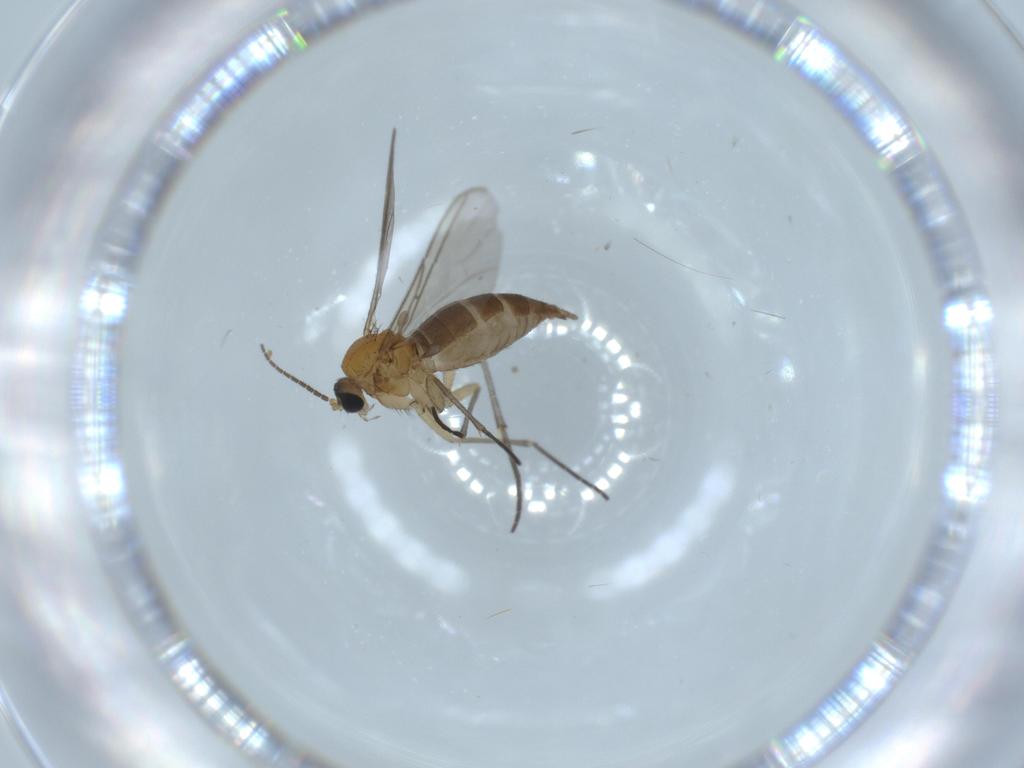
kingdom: Animalia
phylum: Arthropoda
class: Insecta
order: Diptera
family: Sciaridae
